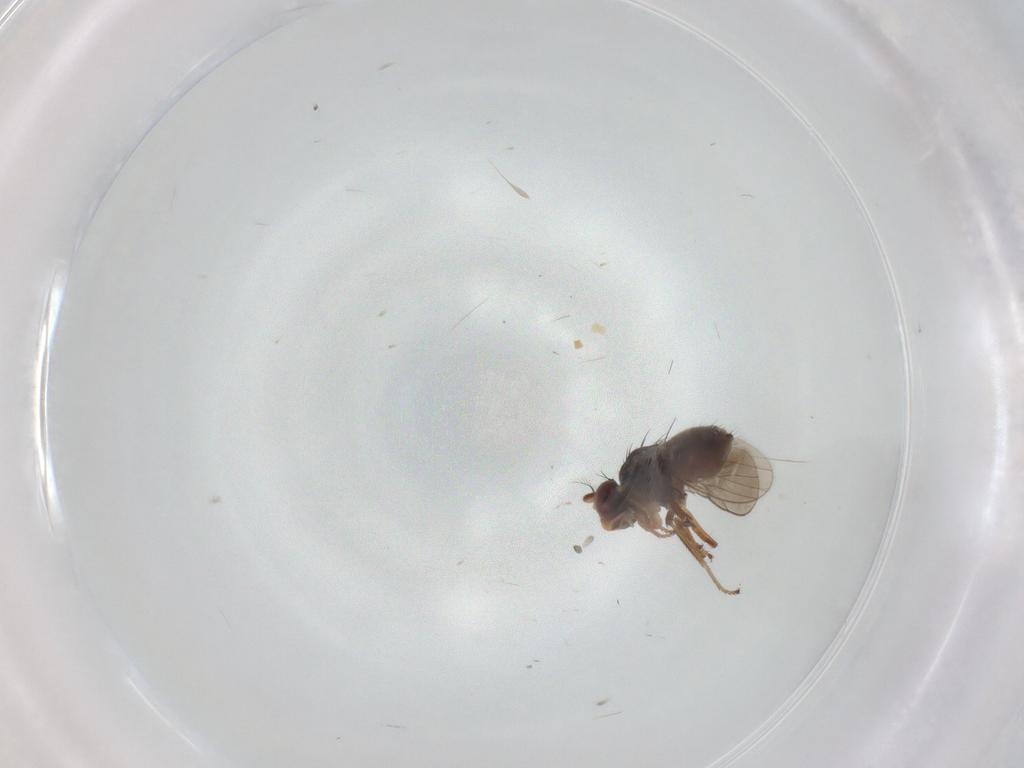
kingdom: Animalia
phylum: Arthropoda
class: Insecta
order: Diptera
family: Ephydridae
